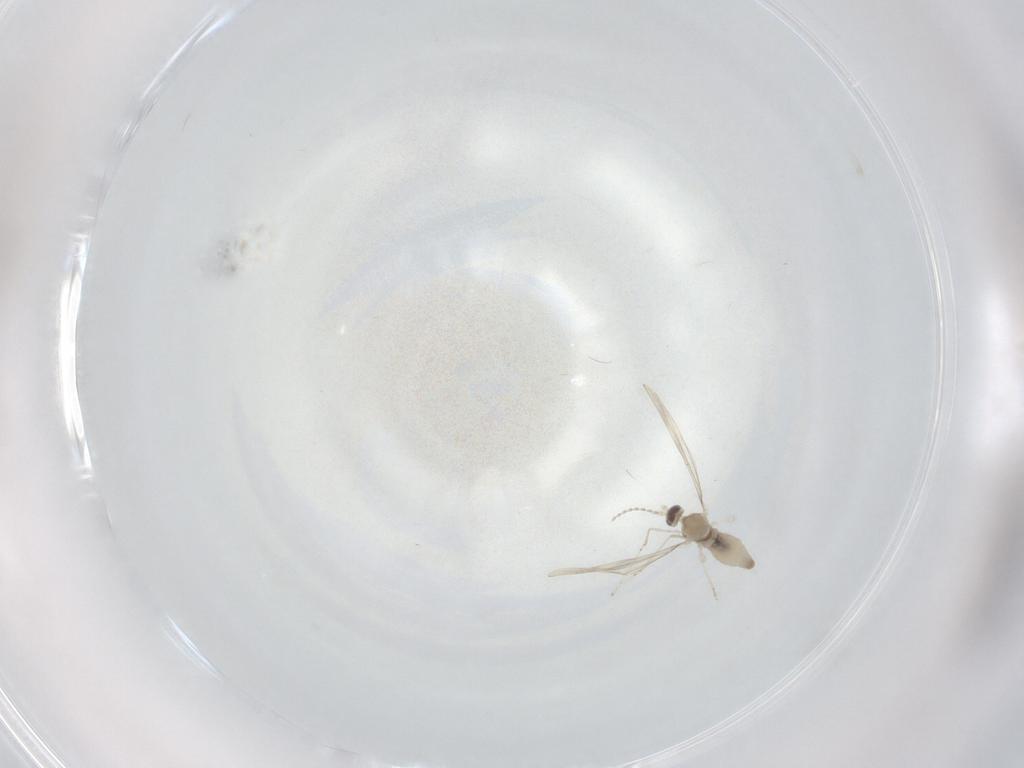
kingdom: Animalia
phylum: Arthropoda
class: Insecta
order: Diptera
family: Cecidomyiidae
